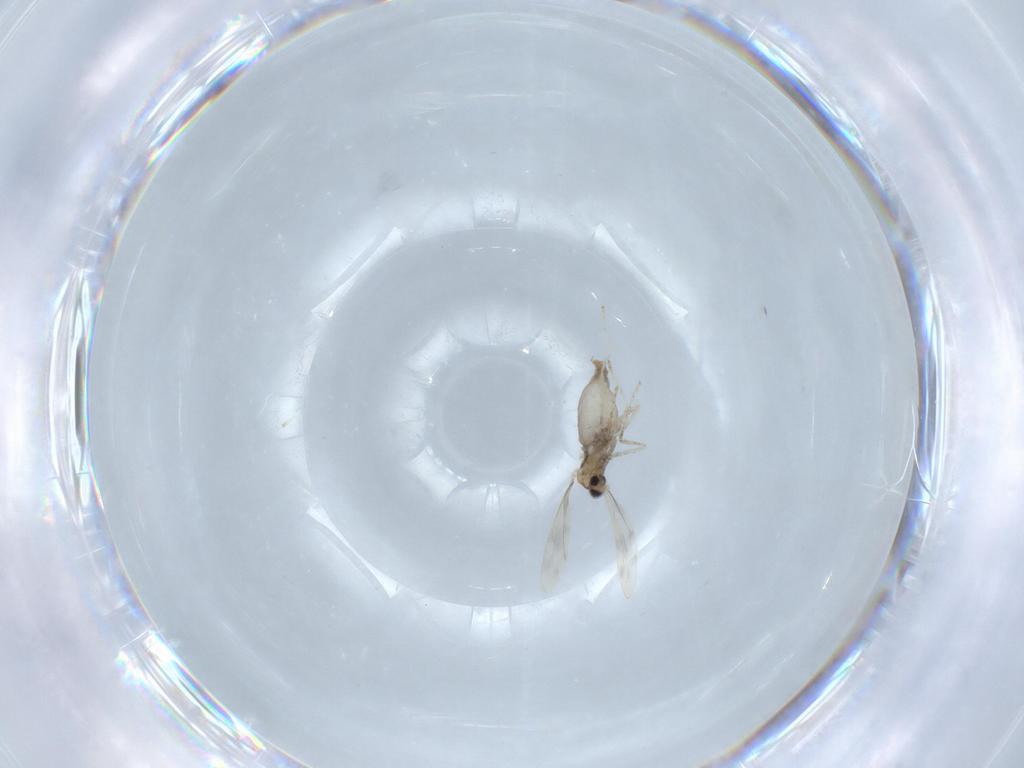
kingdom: Animalia
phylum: Arthropoda
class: Insecta
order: Diptera
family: Cecidomyiidae
